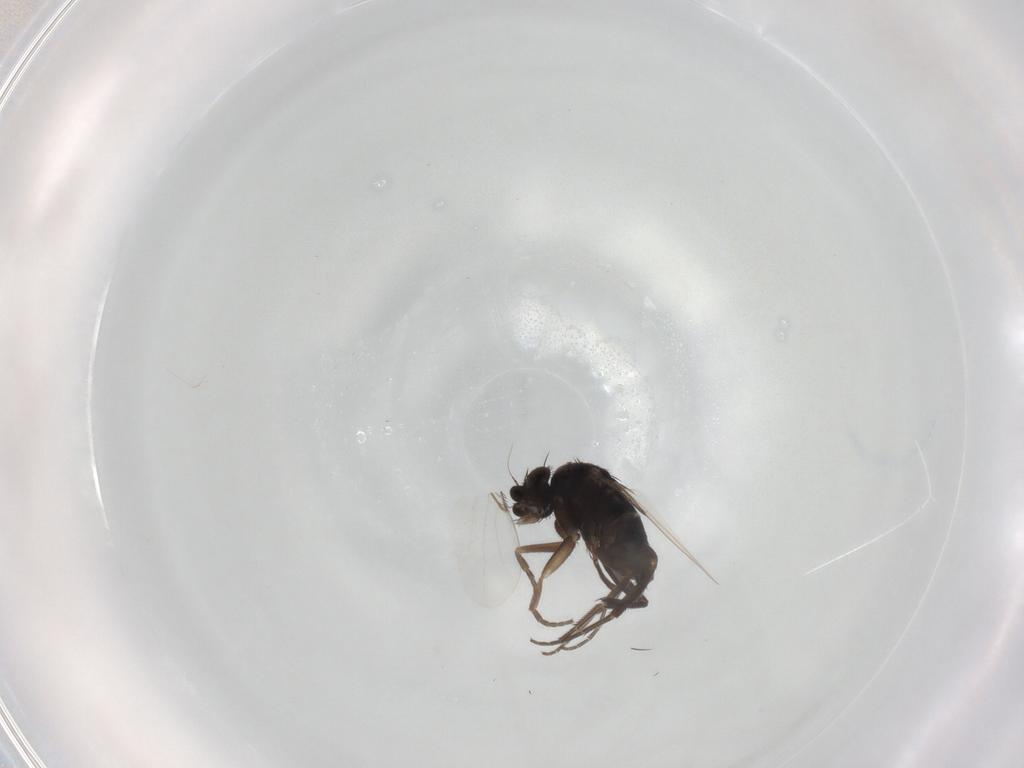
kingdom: Animalia
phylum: Arthropoda
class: Insecta
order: Diptera
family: Phoridae
